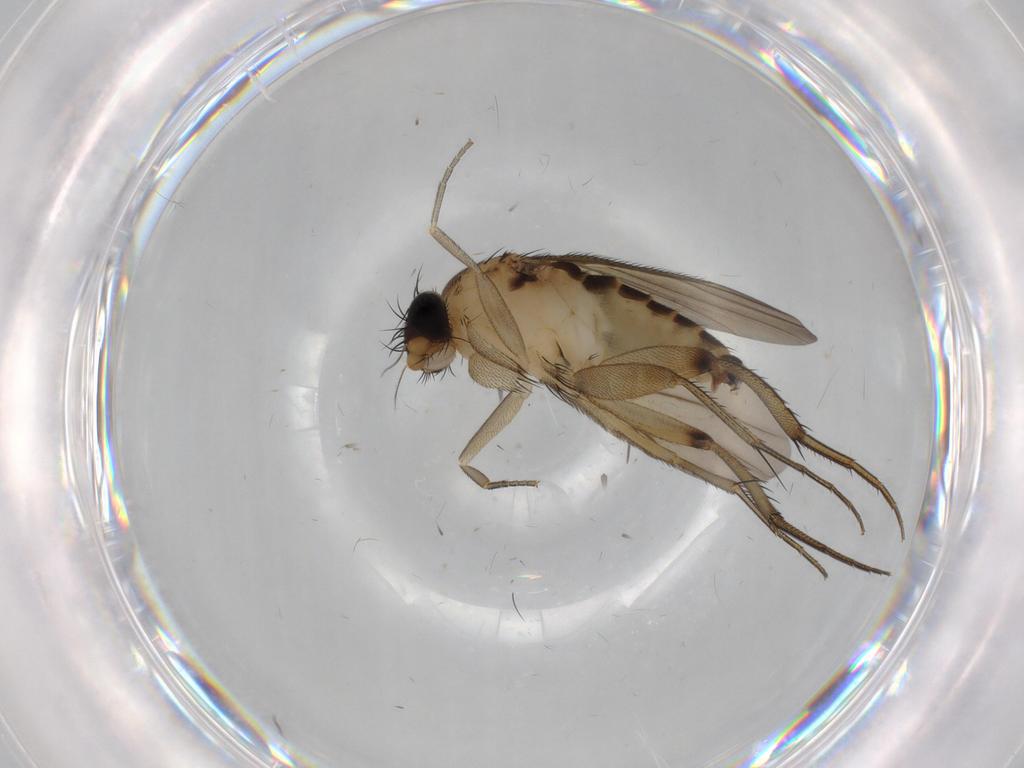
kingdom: Animalia
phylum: Arthropoda
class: Insecta
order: Diptera
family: Phoridae
